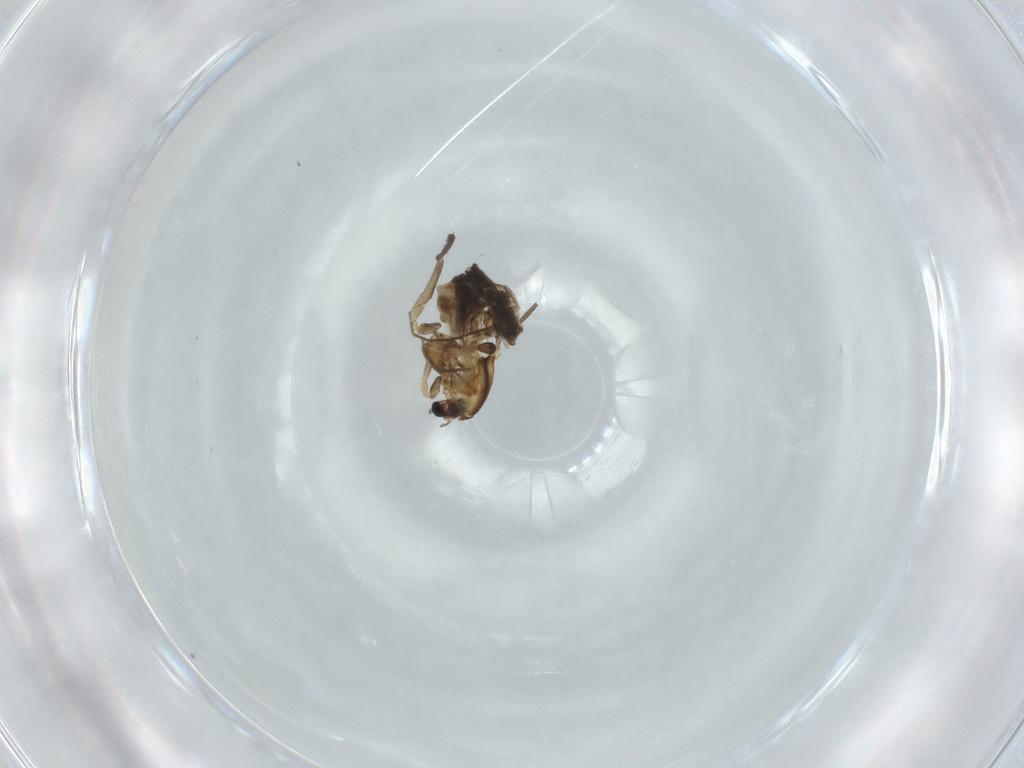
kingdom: Animalia
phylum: Arthropoda
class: Insecta
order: Diptera
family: Chironomidae
